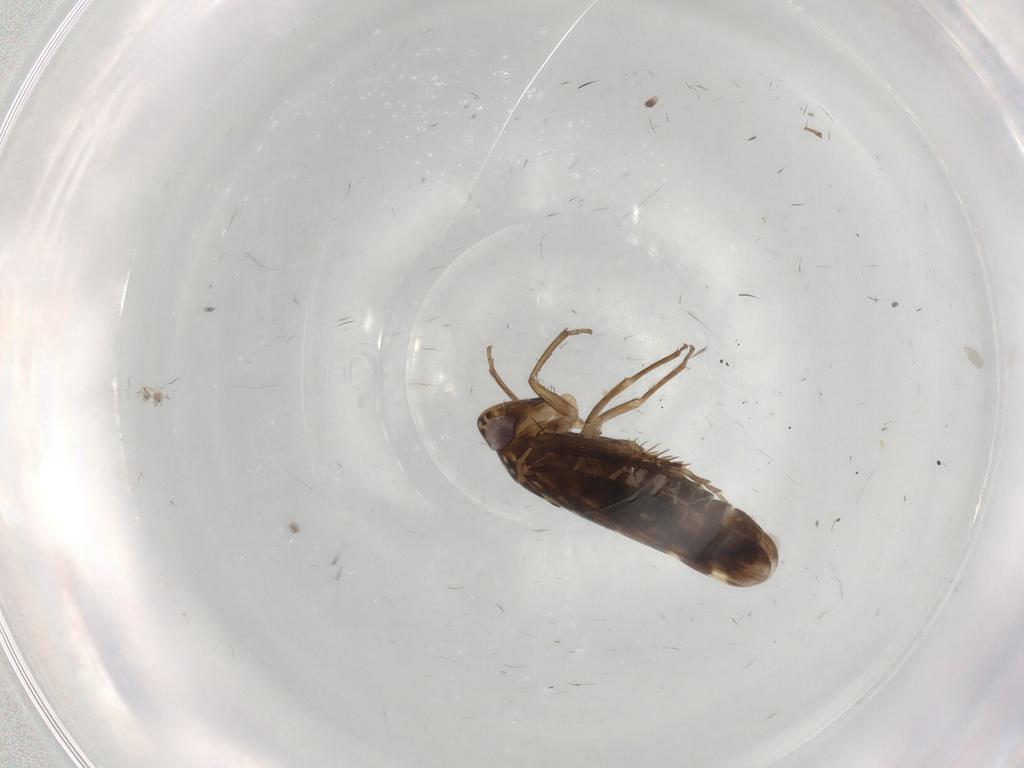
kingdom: Animalia
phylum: Arthropoda
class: Insecta
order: Hemiptera
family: Cicadellidae
